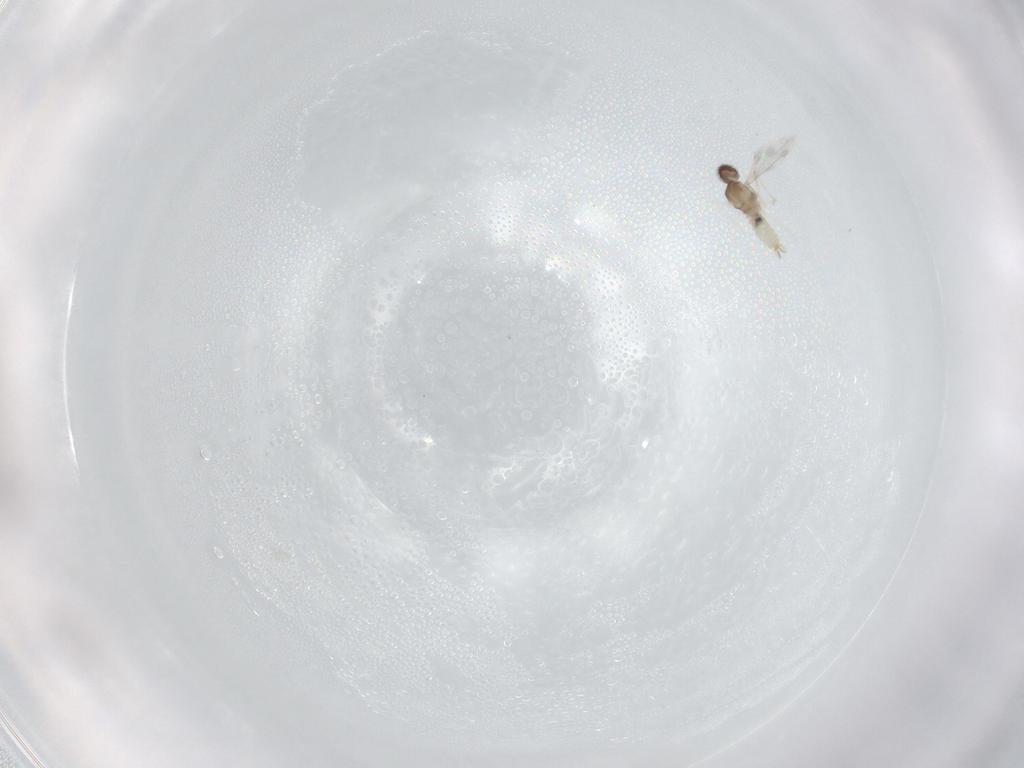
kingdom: Animalia
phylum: Arthropoda
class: Insecta
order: Diptera
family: Cecidomyiidae
